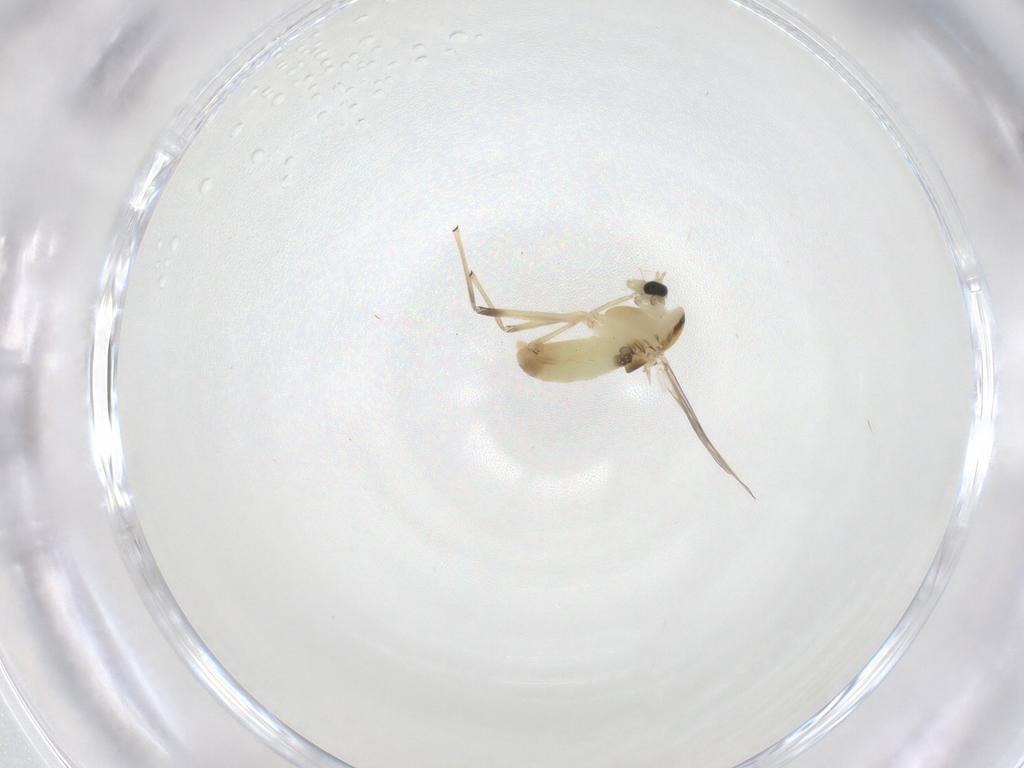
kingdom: Animalia
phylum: Arthropoda
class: Insecta
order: Diptera
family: Chironomidae
